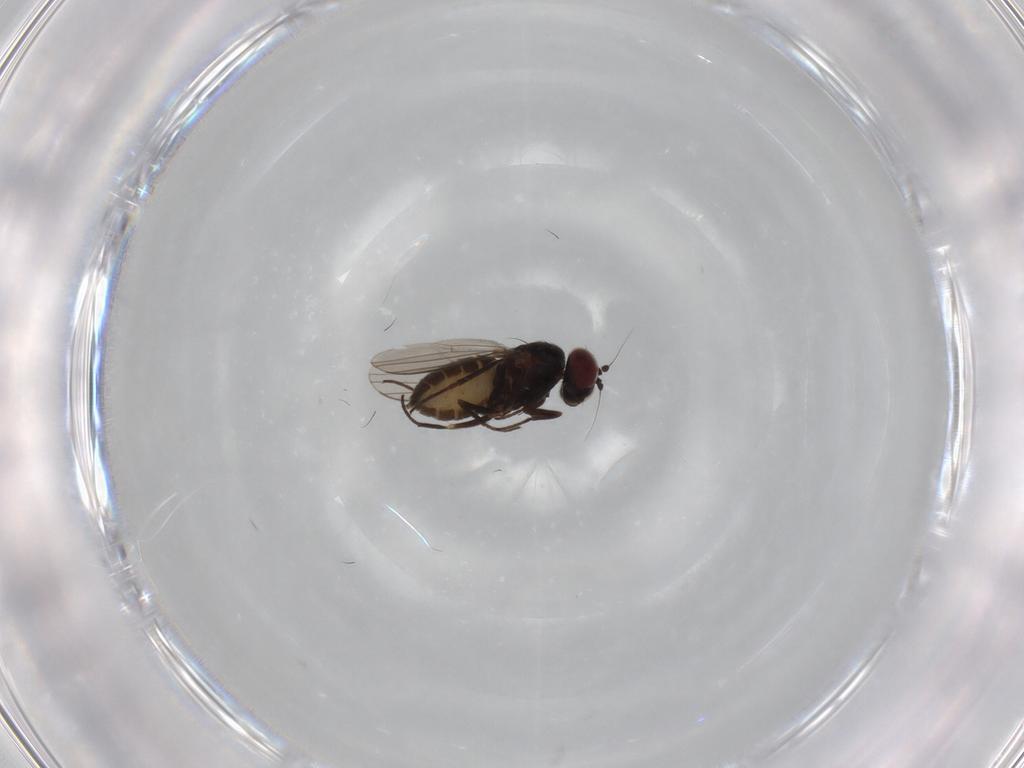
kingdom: Animalia
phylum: Arthropoda
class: Insecta
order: Diptera
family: Dolichopodidae
